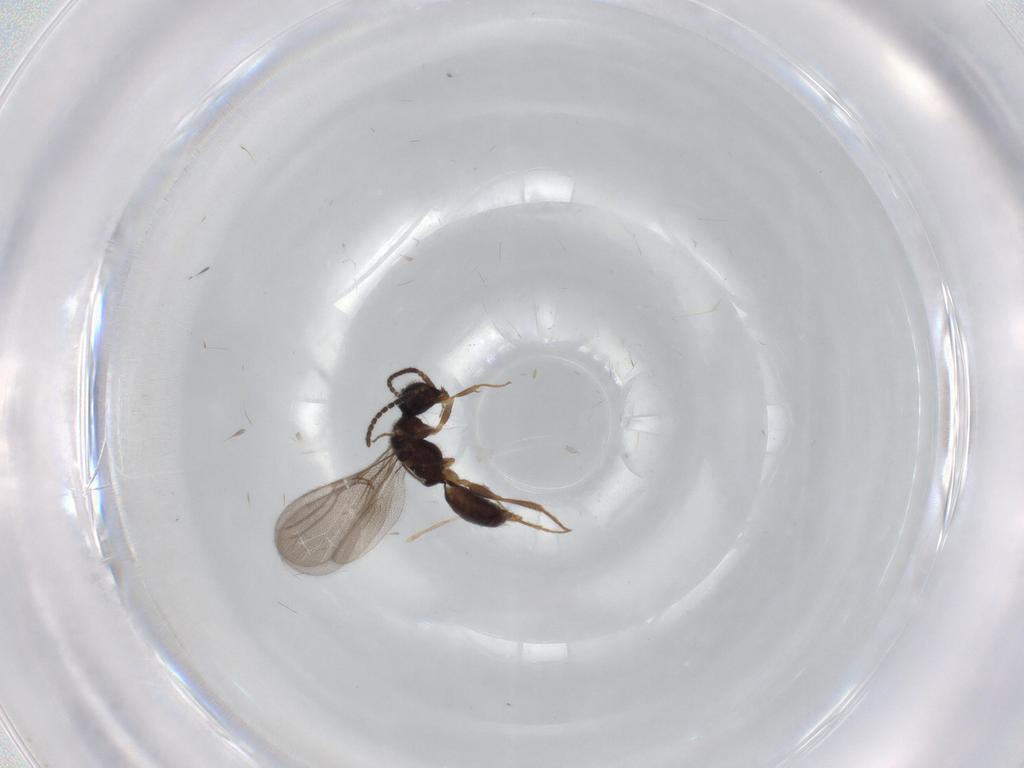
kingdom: Animalia
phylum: Arthropoda
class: Insecta
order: Hymenoptera
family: Bethylidae
